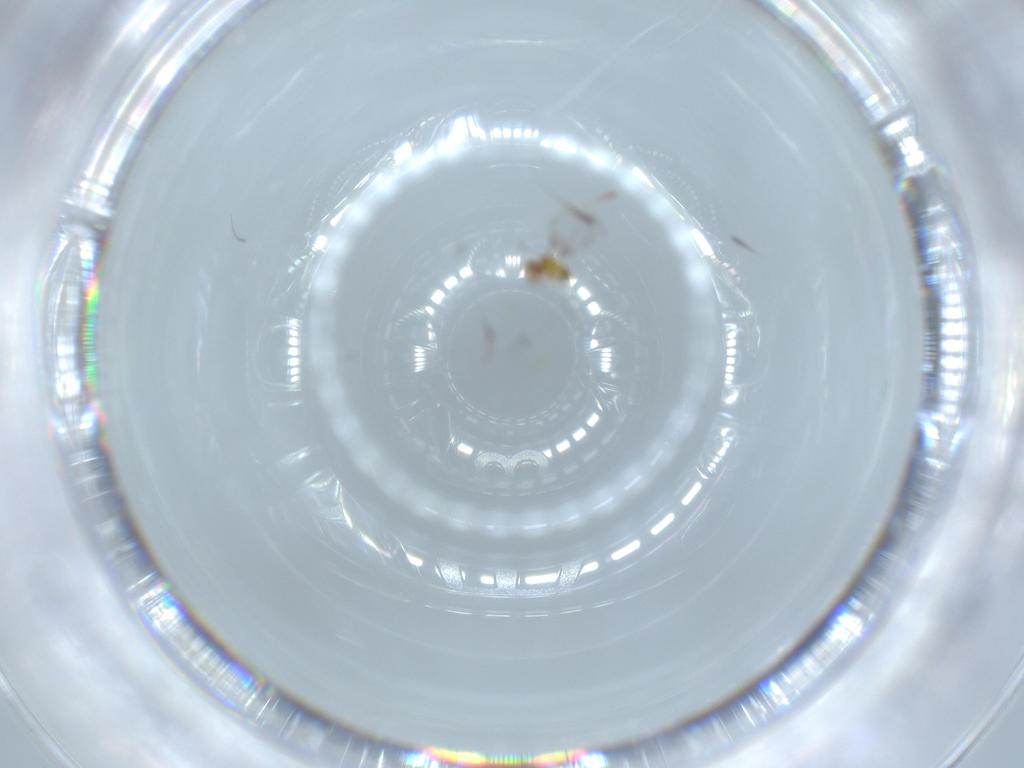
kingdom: Animalia
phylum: Arthropoda
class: Insecta
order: Hymenoptera
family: Trichogrammatidae
